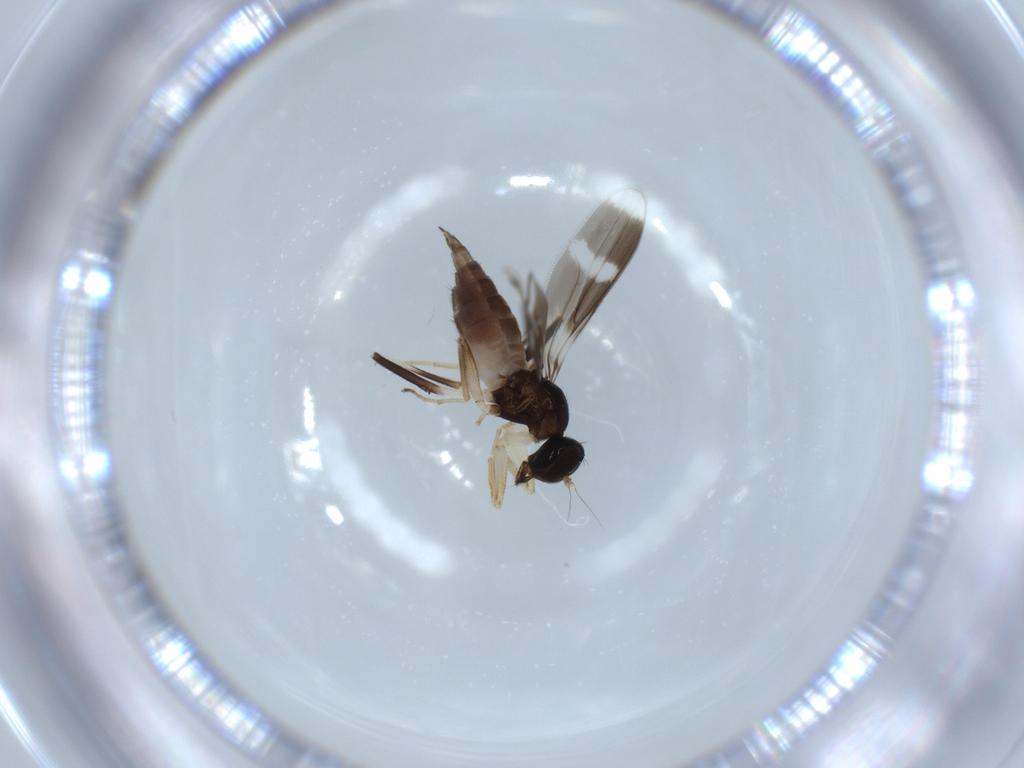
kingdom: Animalia
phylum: Arthropoda
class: Insecta
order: Diptera
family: Hybotidae
